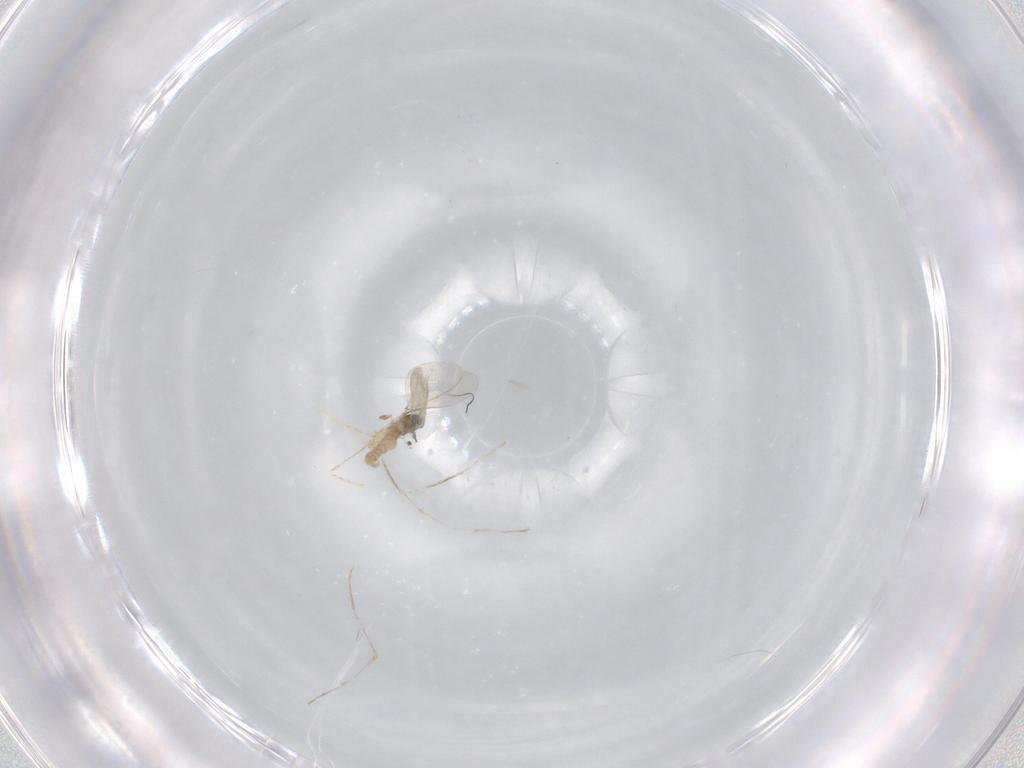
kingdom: Animalia
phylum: Arthropoda
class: Insecta
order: Diptera
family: Cecidomyiidae
